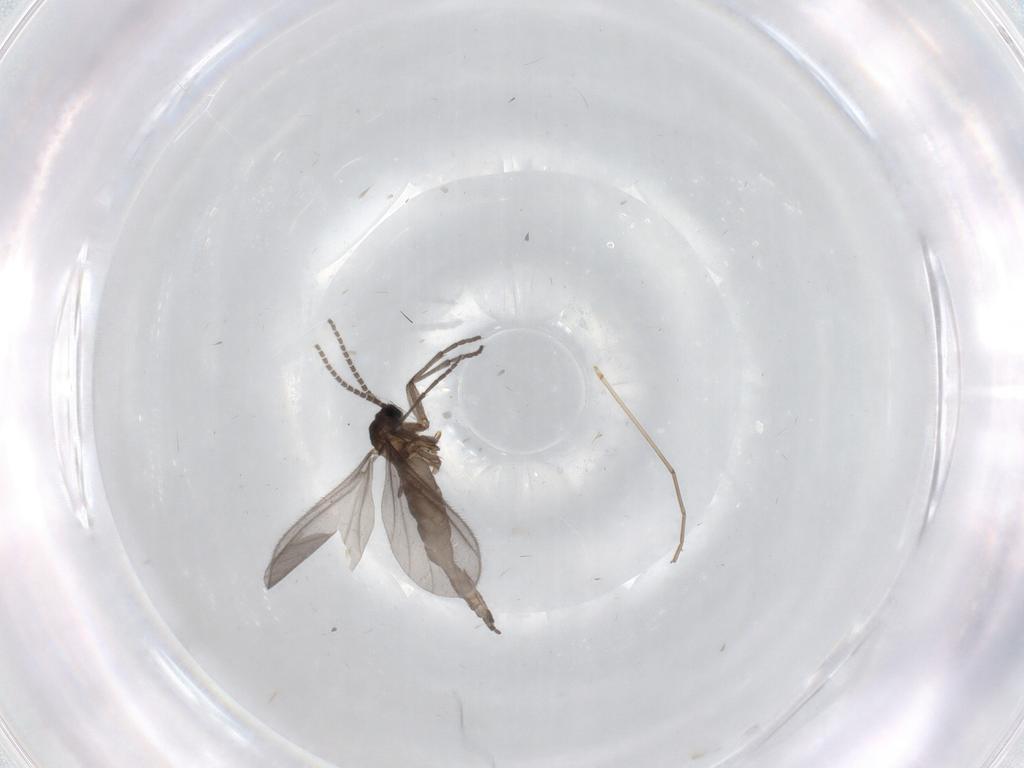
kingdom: Animalia
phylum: Arthropoda
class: Insecta
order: Diptera
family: Sciaridae
